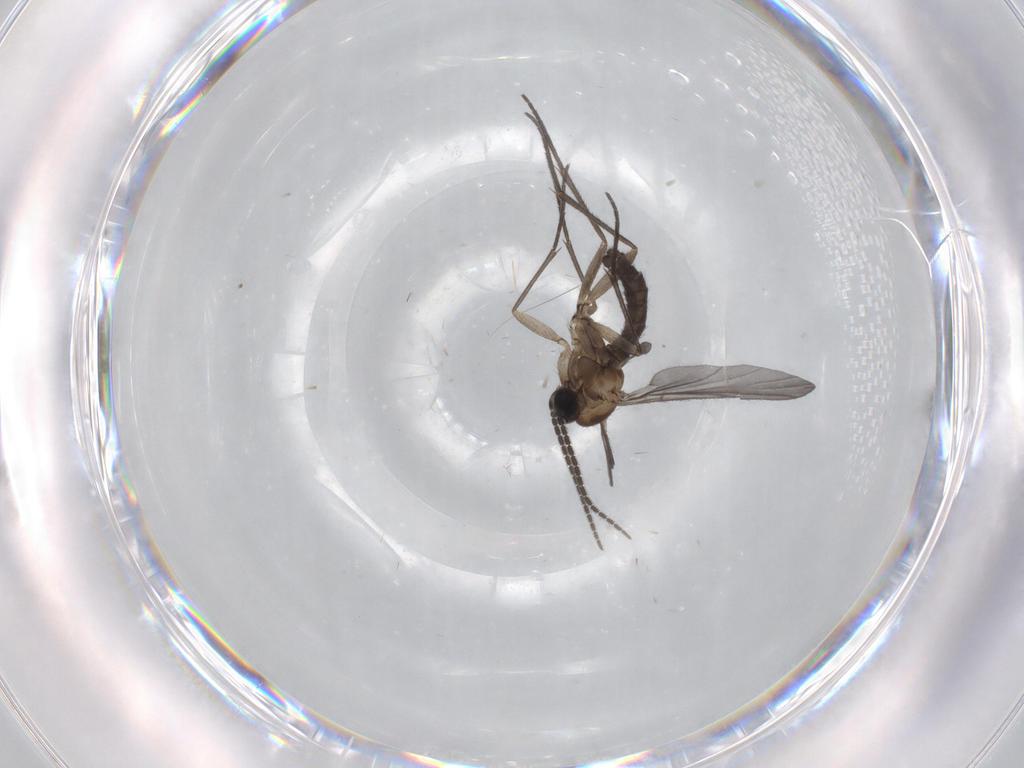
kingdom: Animalia
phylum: Arthropoda
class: Insecta
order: Diptera
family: Sciaridae
